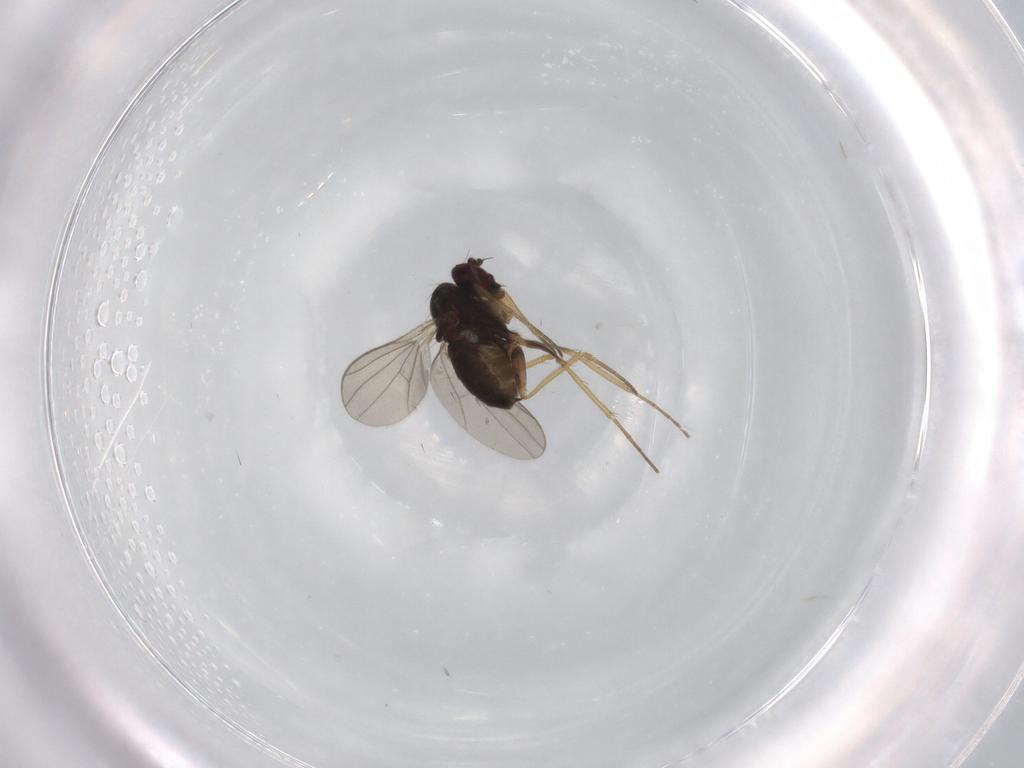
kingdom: Animalia
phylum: Arthropoda
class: Insecta
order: Diptera
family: Dolichopodidae
